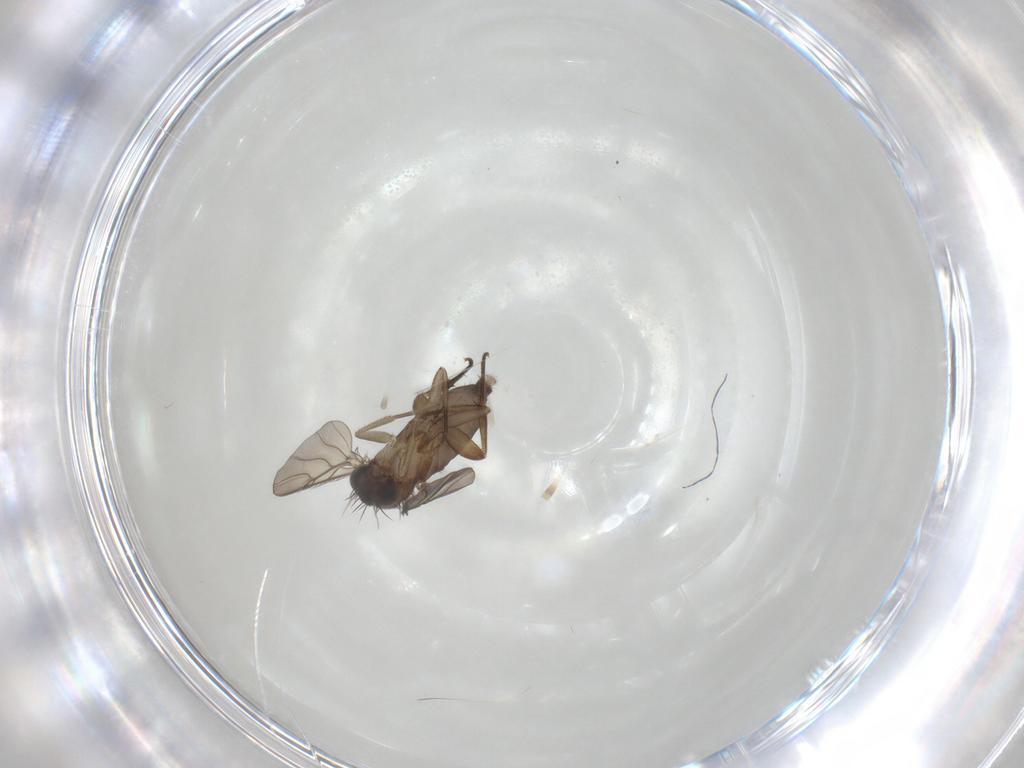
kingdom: Animalia
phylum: Arthropoda
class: Insecta
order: Diptera
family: Phoridae
